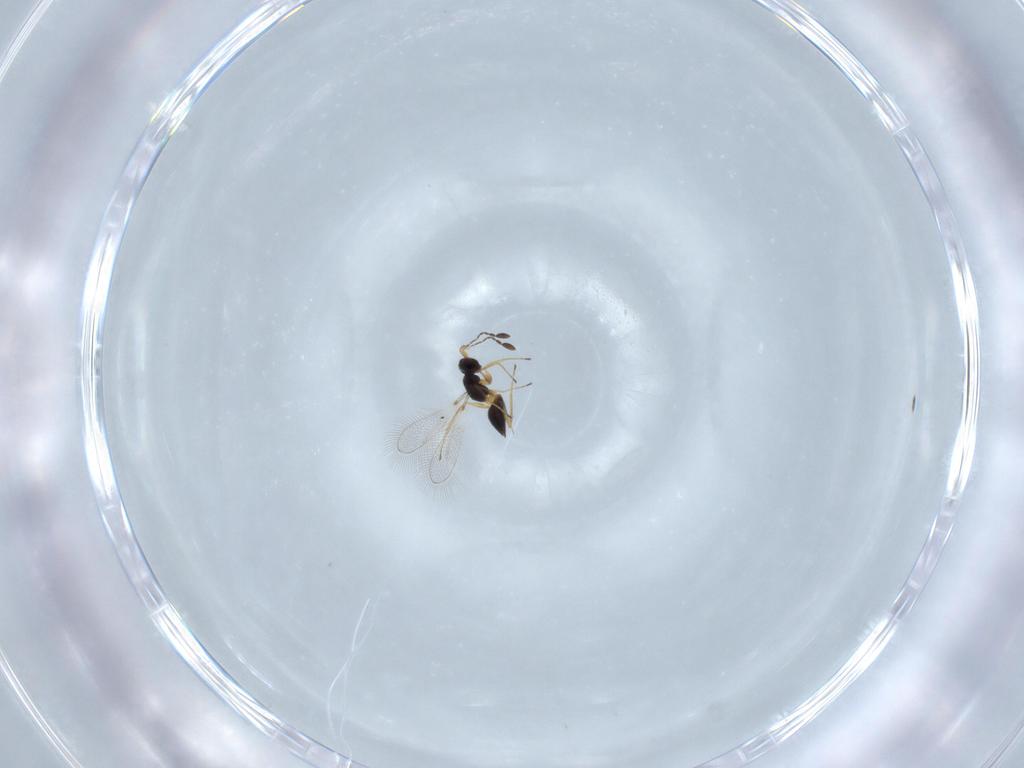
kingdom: Animalia
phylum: Arthropoda
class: Insecta
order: Hymenoptera
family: Mymaridae
